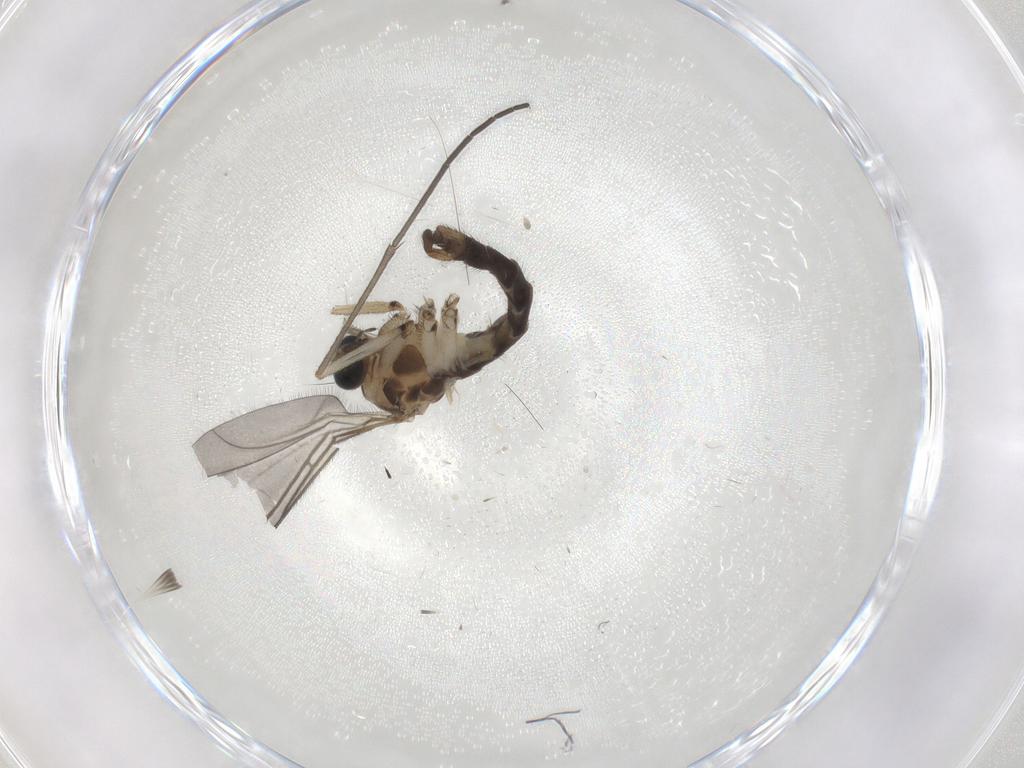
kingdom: Animalia
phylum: Arthropoda
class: Insecta
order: Diptera
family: Sciaridae
